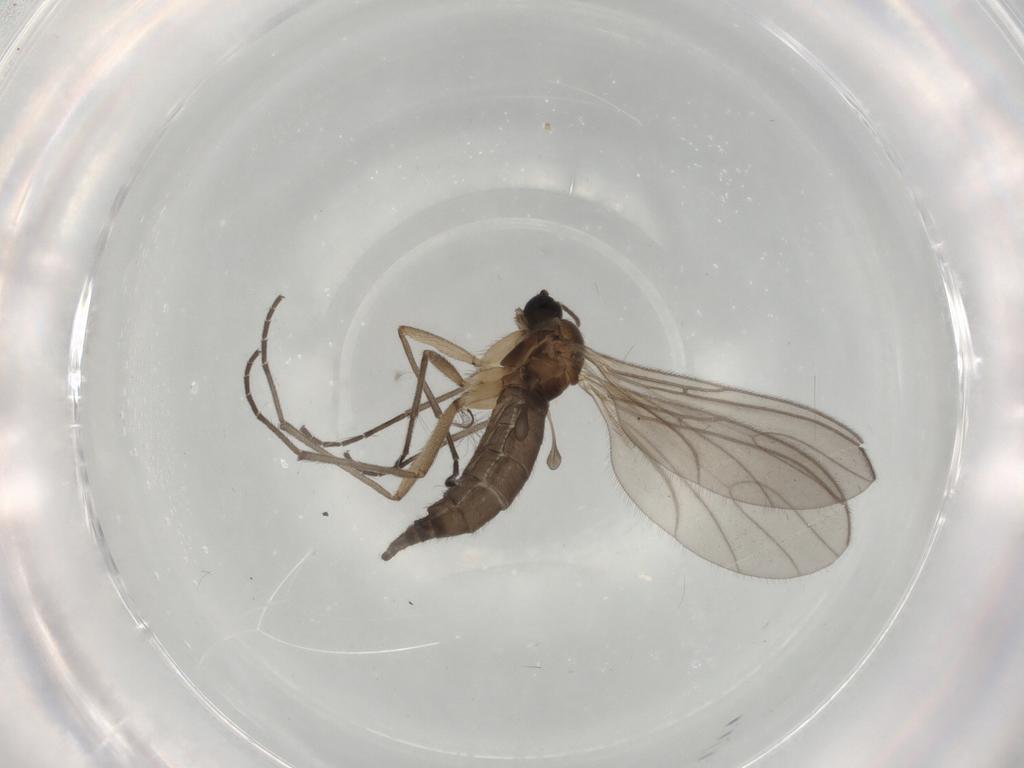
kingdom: Animalia
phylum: Arthropoda
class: Insecta
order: Diptera
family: Sciaridae
